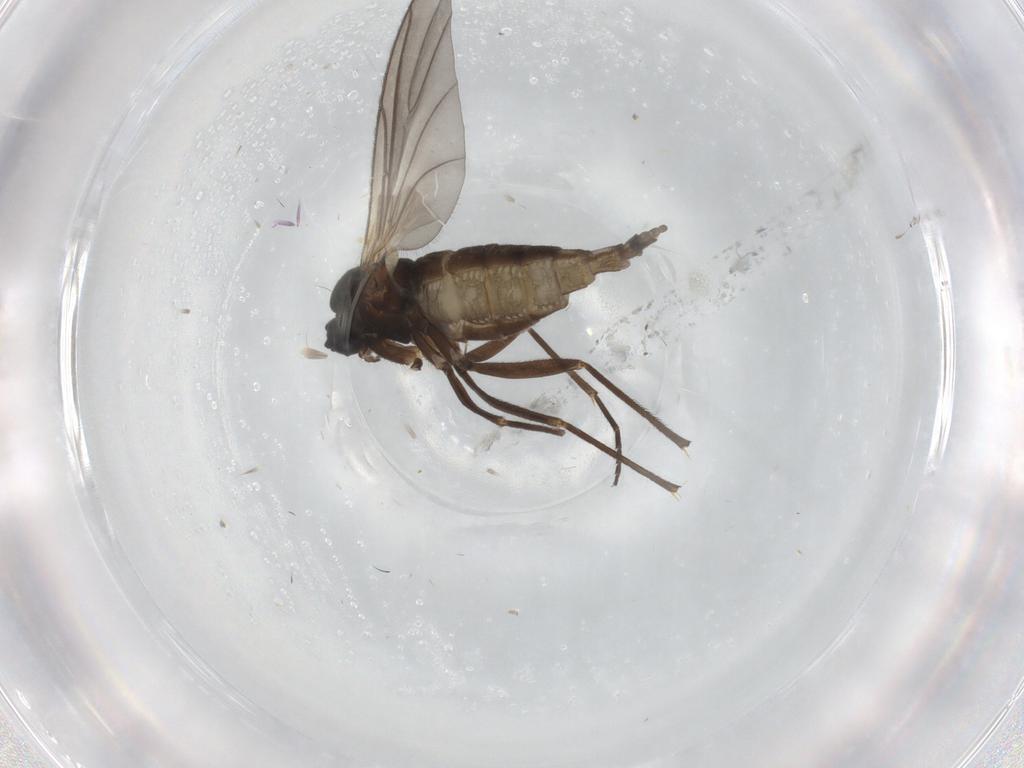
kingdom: Animalia
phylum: Arthropoda
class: Insecta
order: Diptera
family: Sciaridae
